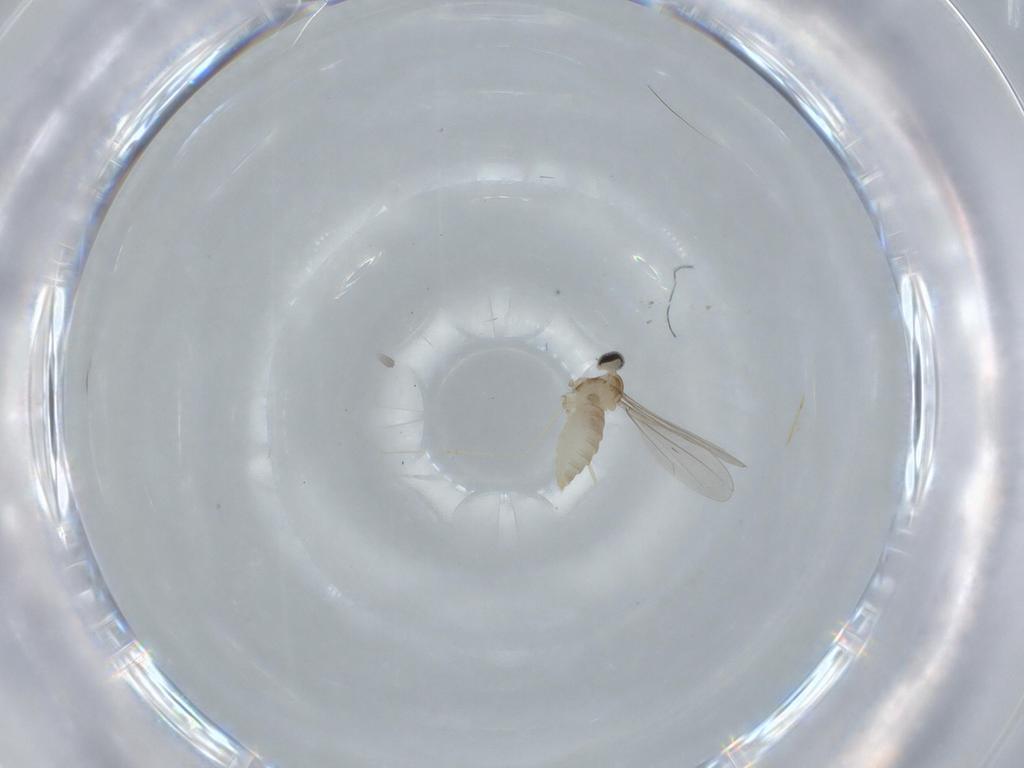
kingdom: Animalia
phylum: Arthropoda
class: Insecta
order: Diptera
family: Cecidomyiidae
